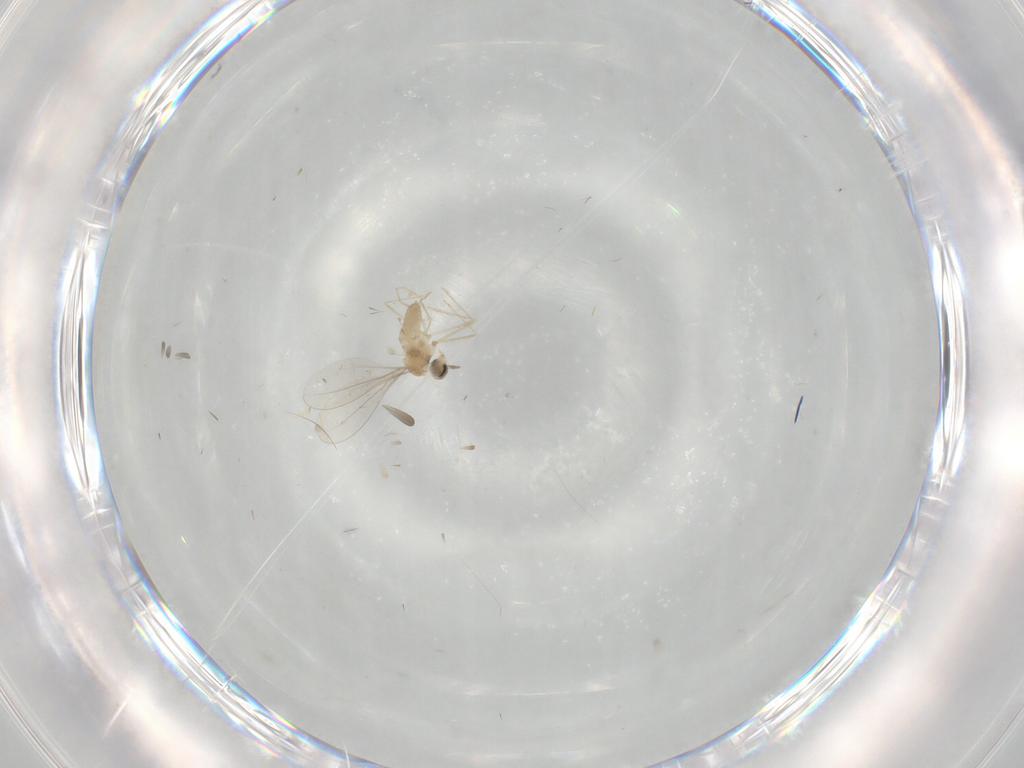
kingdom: Animalia
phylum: Arthropoda
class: Insecta
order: Diptera
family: Cecidomyiidae
